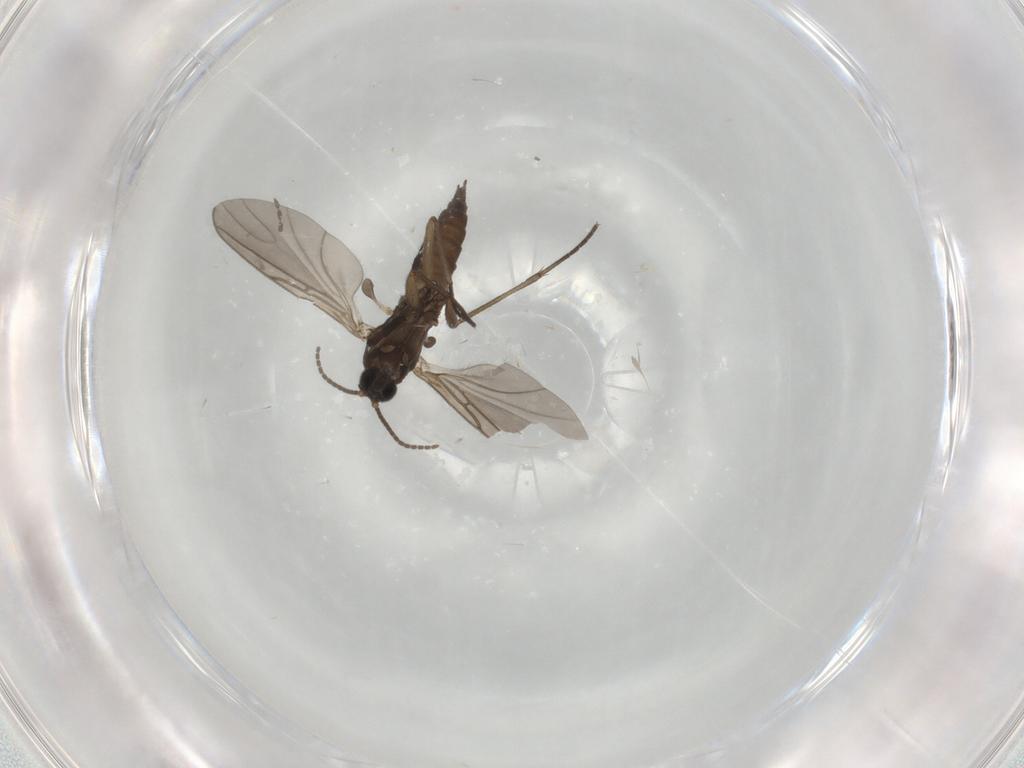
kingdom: Animalia
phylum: Arthropoda
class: Insecta
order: Diptera
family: Sciaridae
